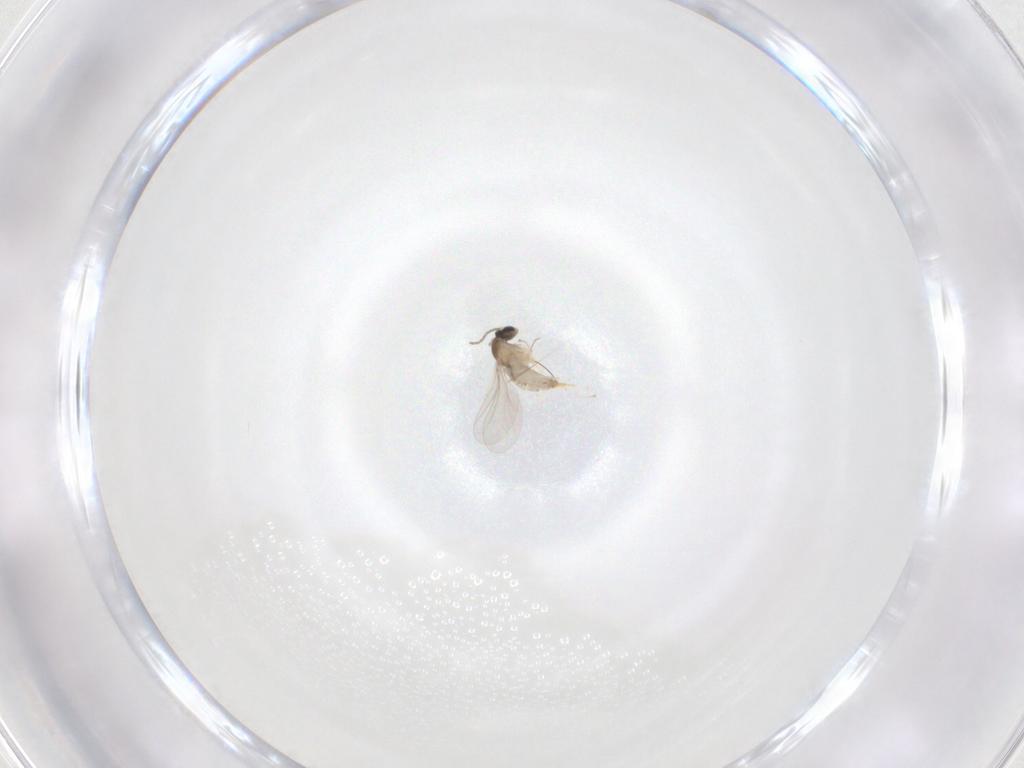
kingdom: Animalia
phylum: Arthropoda
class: Insecta
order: Diptera
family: Cecidomyiidae
